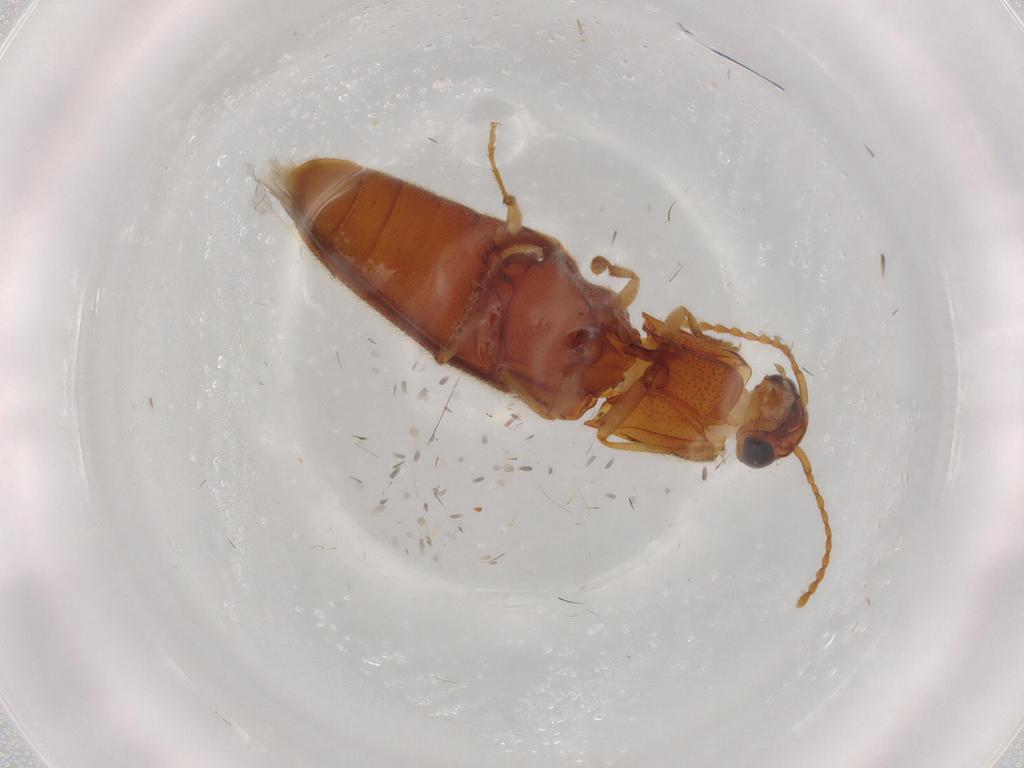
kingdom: Animalia
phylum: Arthropoda
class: Insecta
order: Coleoptera
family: Elateridae
